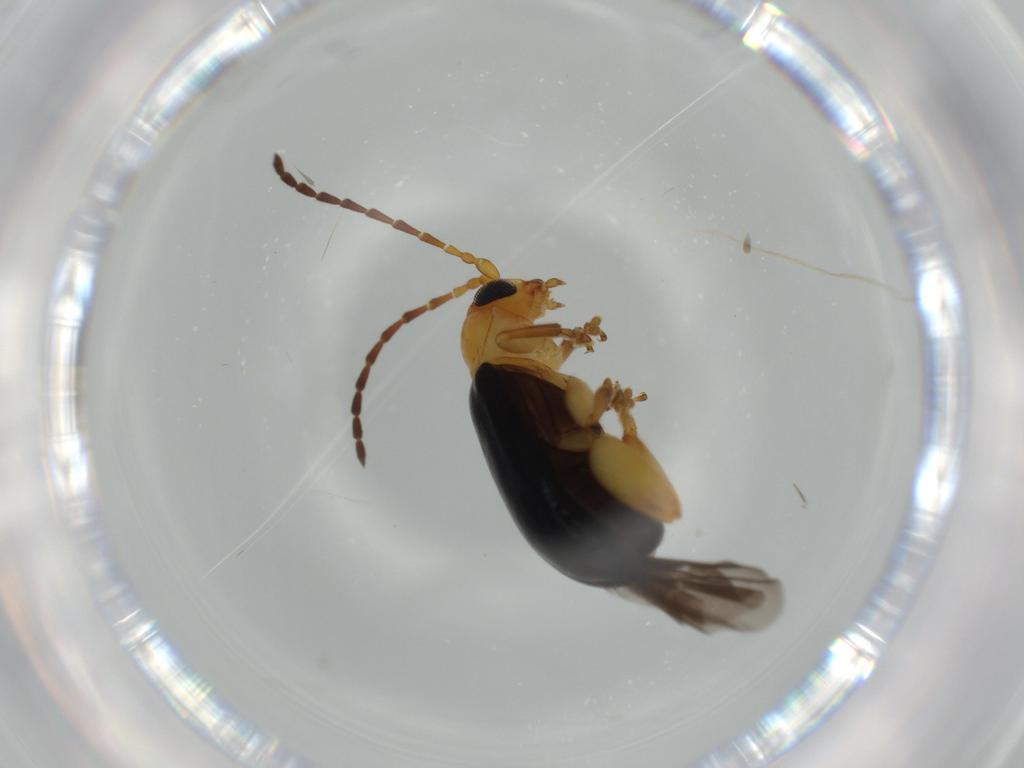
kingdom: Animalia
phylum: Arthropoda
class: Insecta
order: Coleoptera
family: Chrysomelidae
